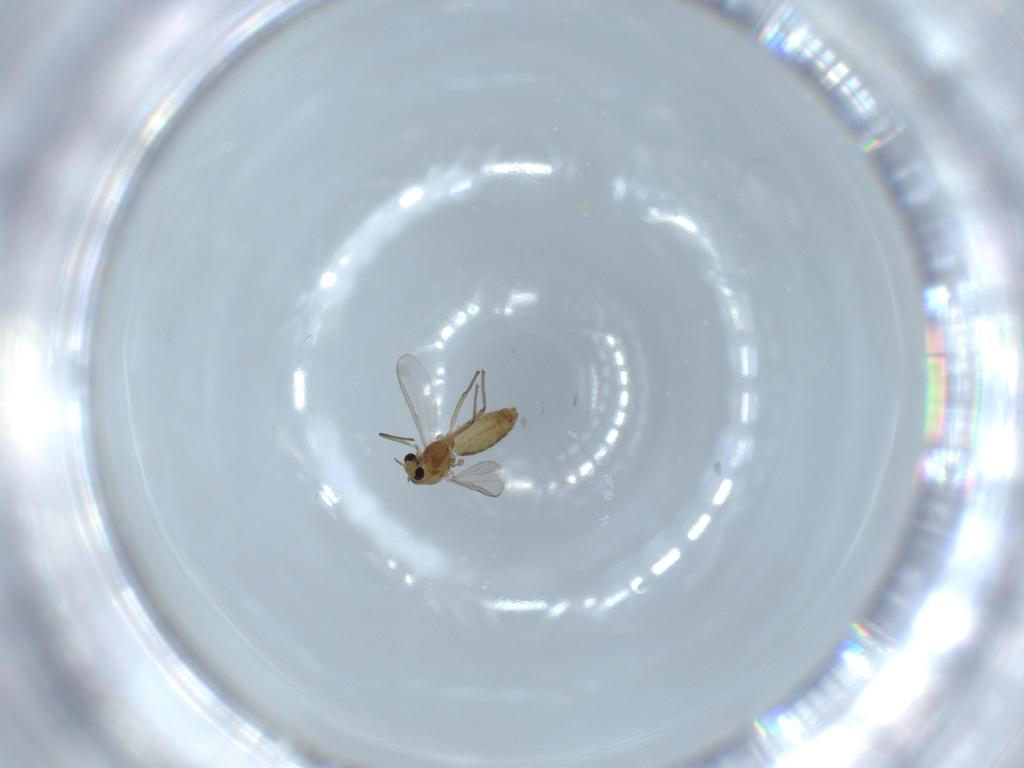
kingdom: Animalia
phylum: Arthropoda
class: Insecta
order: Diptera
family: Chironomidae
